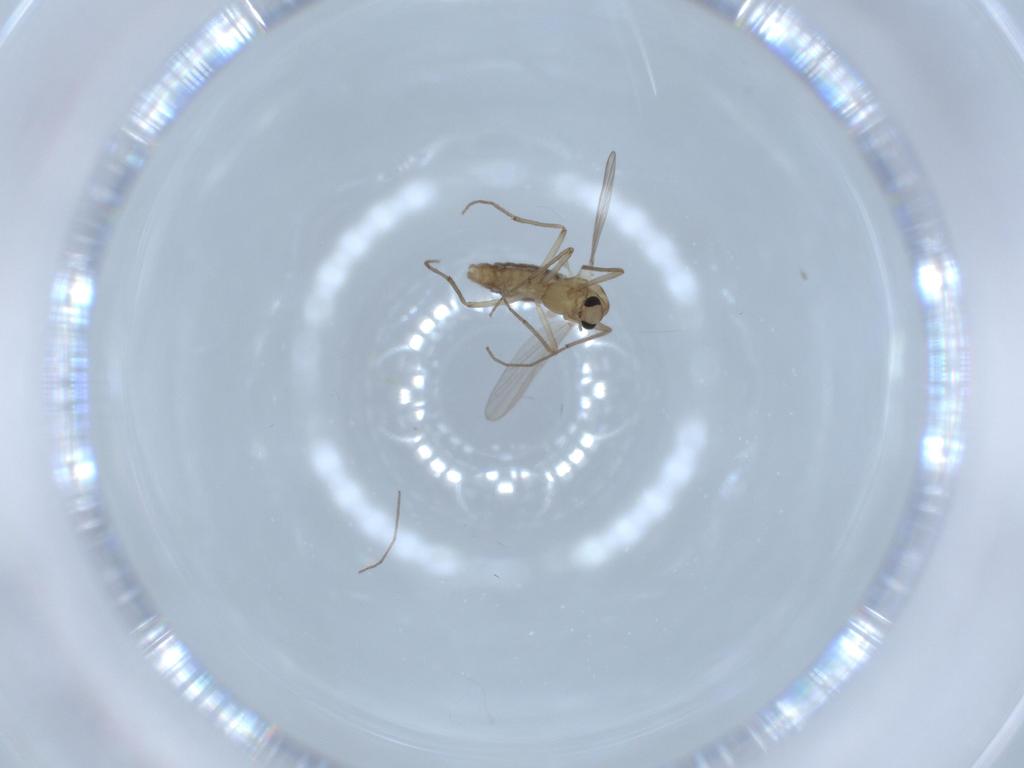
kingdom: Animalia
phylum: Arthropoda
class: Insecta
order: Diptera
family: Chironomidae
